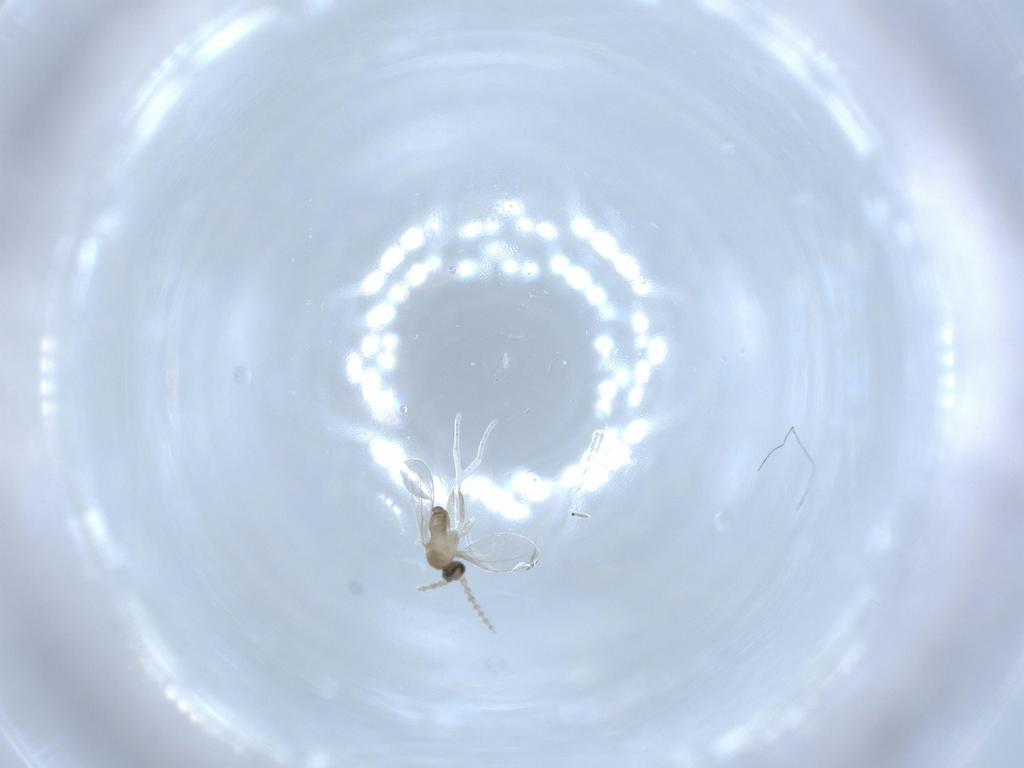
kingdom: Animalia
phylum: Arthropoda
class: Insecta
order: Diptera
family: Cecidomyiidae
